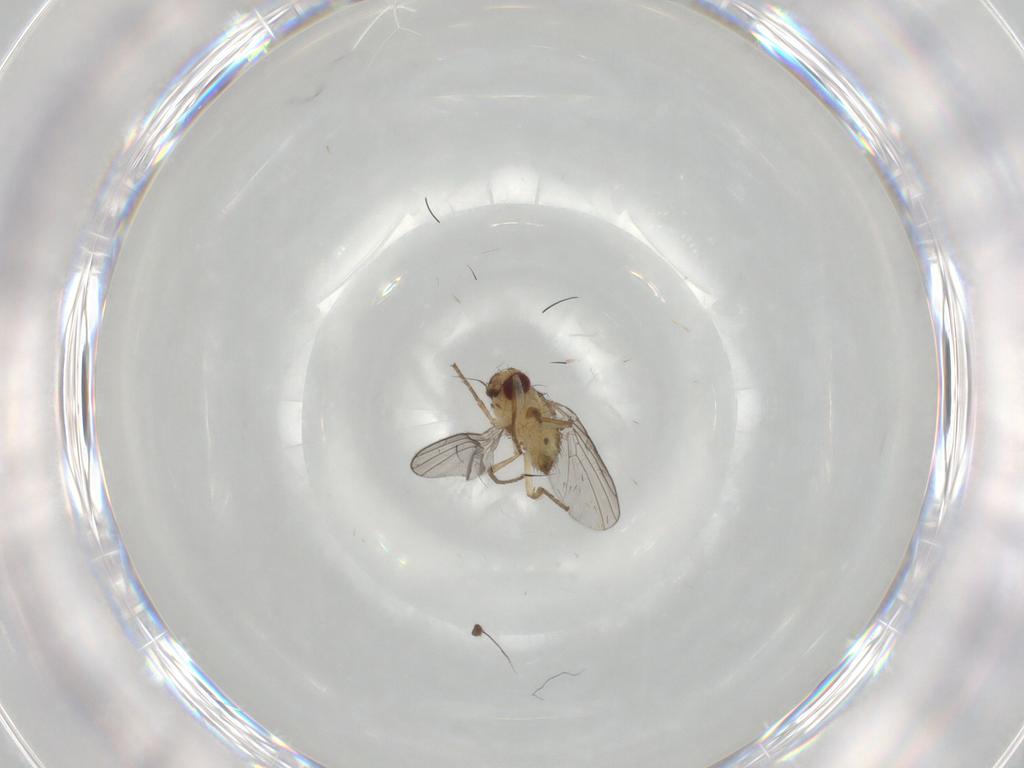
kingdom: Animalia
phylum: Arthropoda
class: Insecta
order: Diptera
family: Agromyzidae
